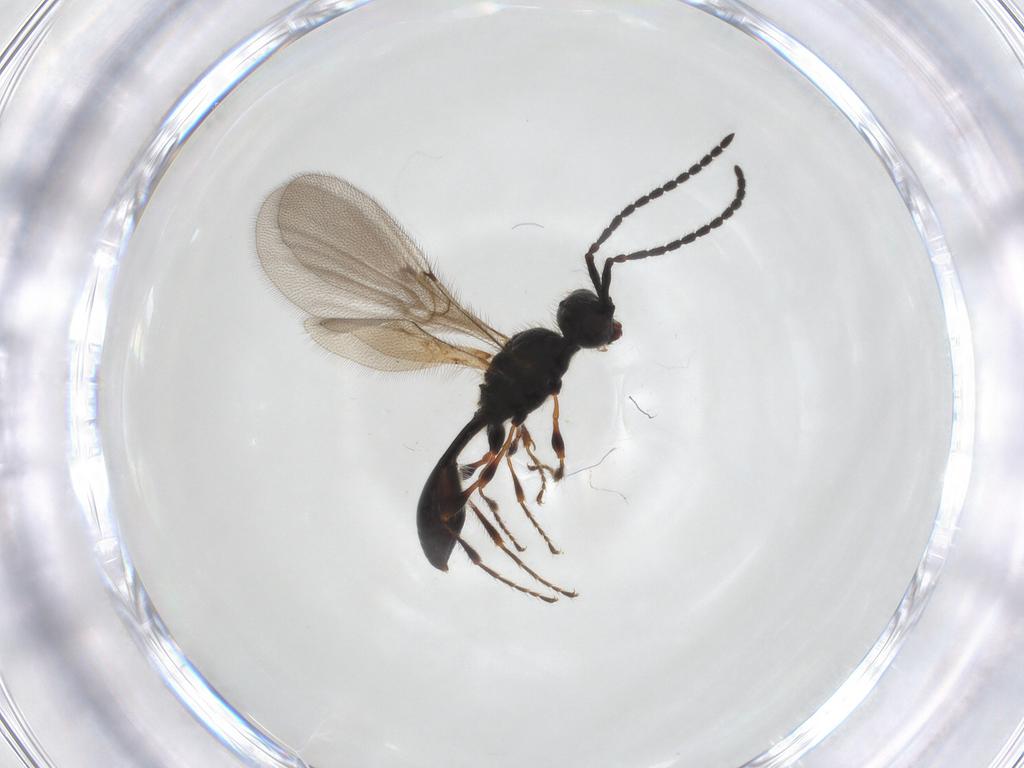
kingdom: Animalia
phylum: Arthropoda
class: Insecta
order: Hymenoptera
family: Diapriidae
